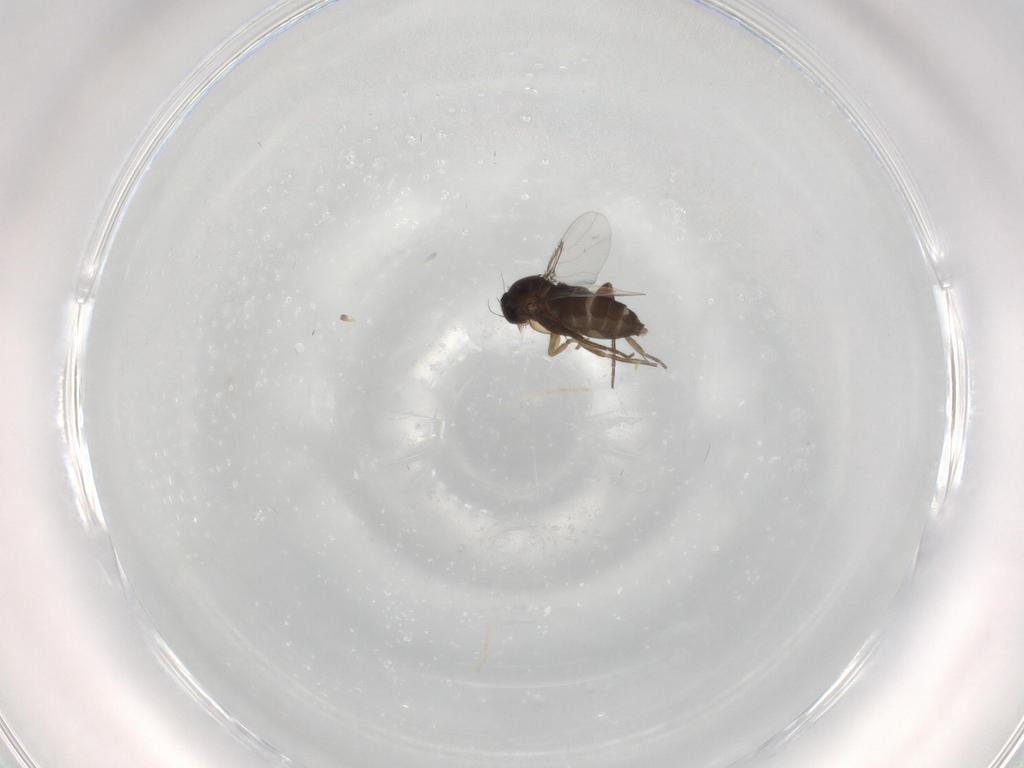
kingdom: Animalia
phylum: Arthropoda
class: Insecta
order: Diptera
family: Phoridae
